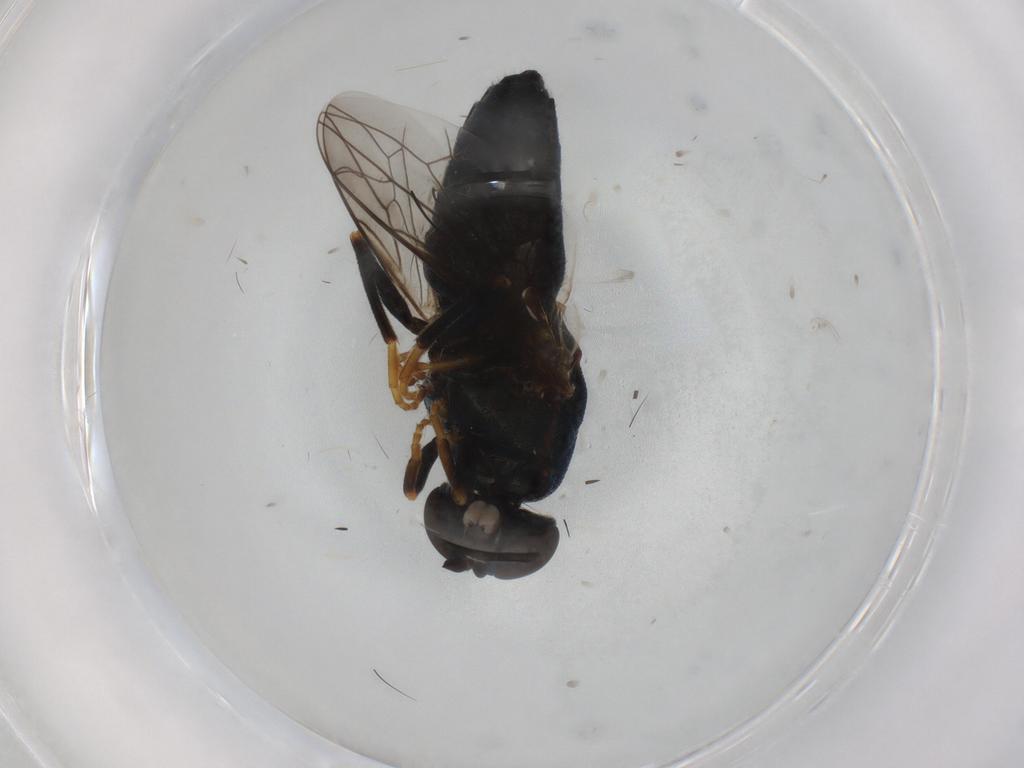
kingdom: Animalia
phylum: Arthropoda
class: Insecta
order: Diptera
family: Scenopinidae
